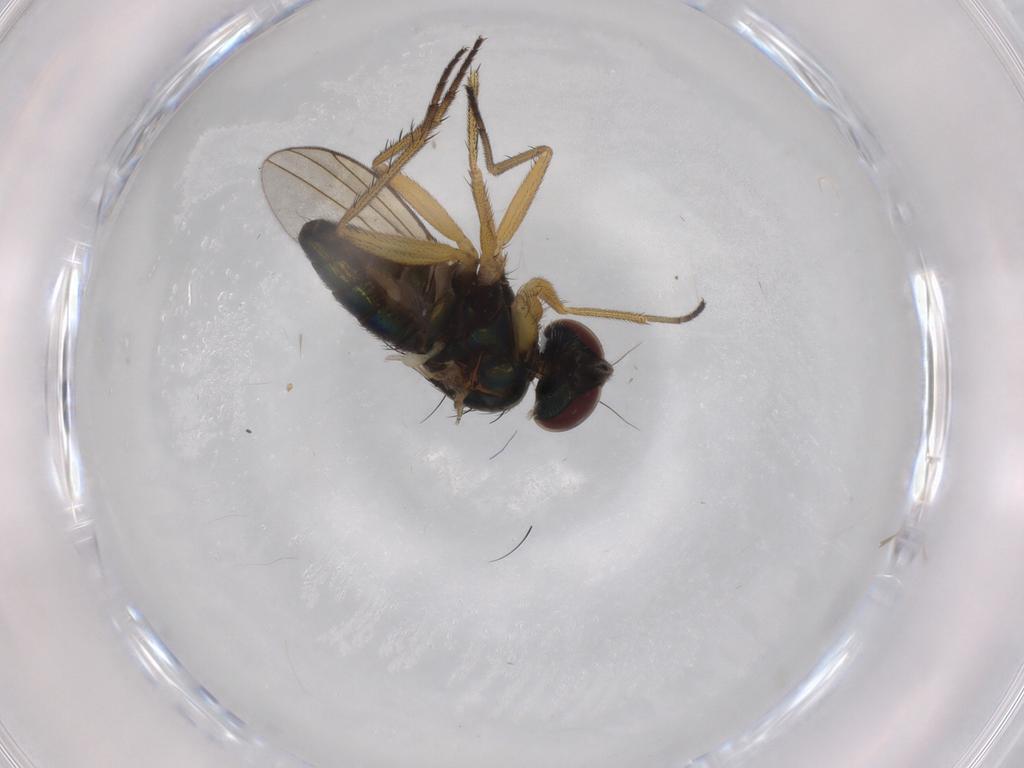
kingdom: Animalia
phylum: Arthropoda
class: Insecta
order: Diptera
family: Dolichopodidae
